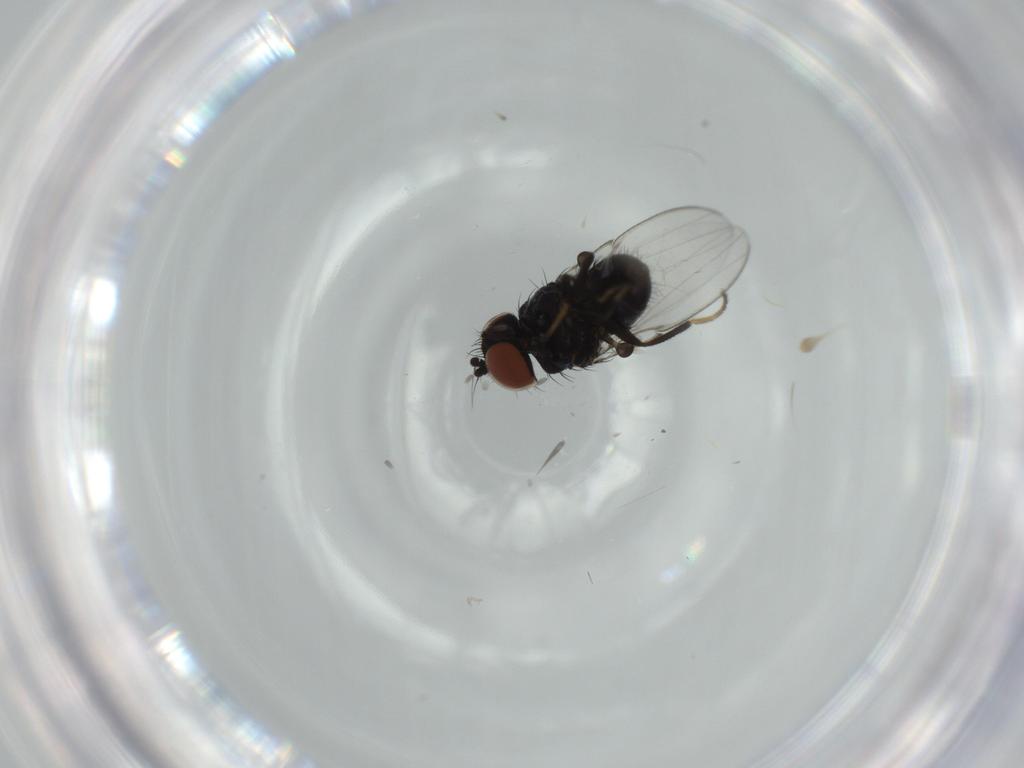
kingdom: Animalia
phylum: Arthropoda
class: Insecta
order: Diptera
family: Milichiidae
